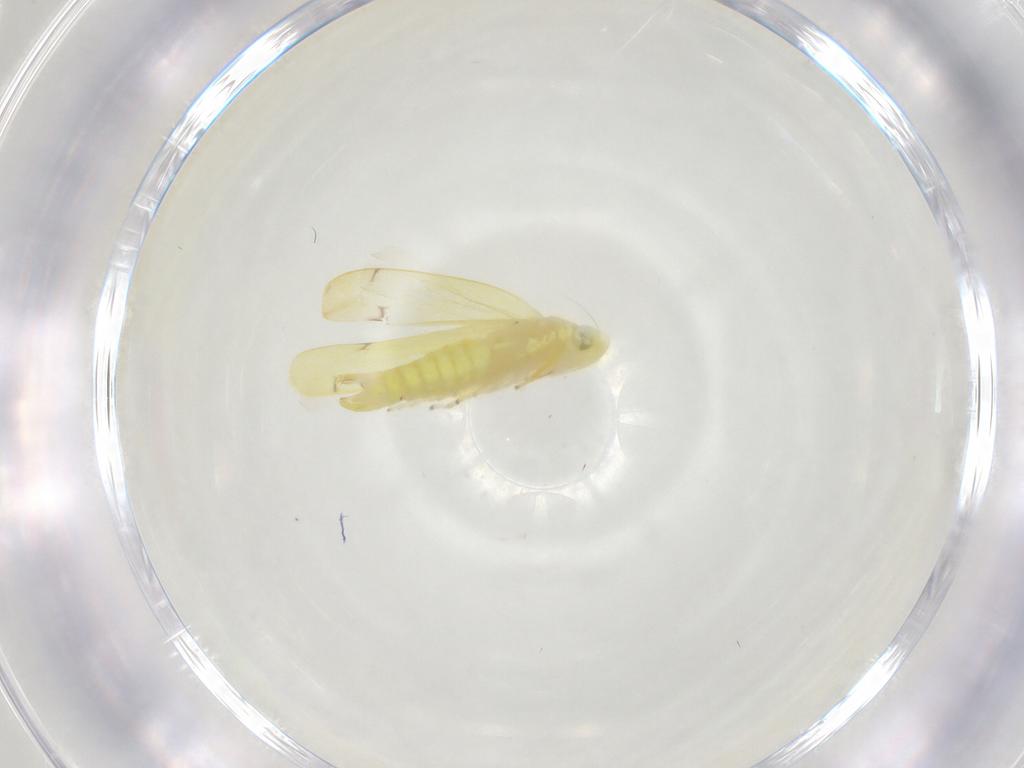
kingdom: Animalia
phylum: Arthropoda
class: Insecta
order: Hemiptera
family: Cicadellidae
